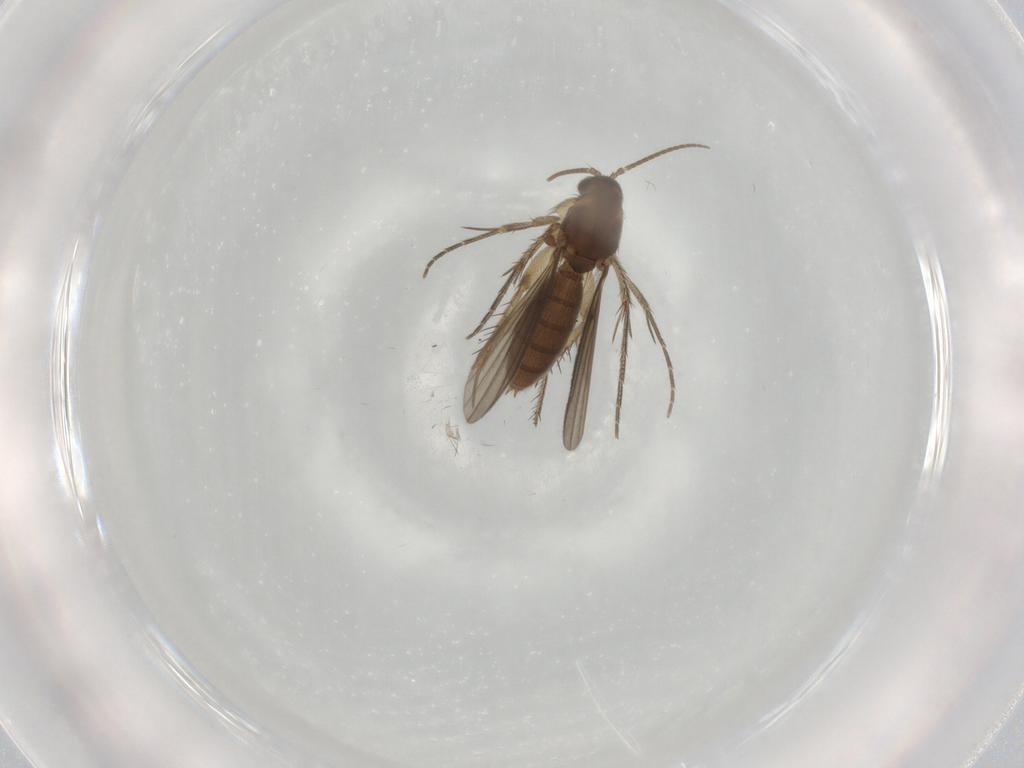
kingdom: Animalia
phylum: Arthropoda
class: Insecta
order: Diptera
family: Mycetophilidae
